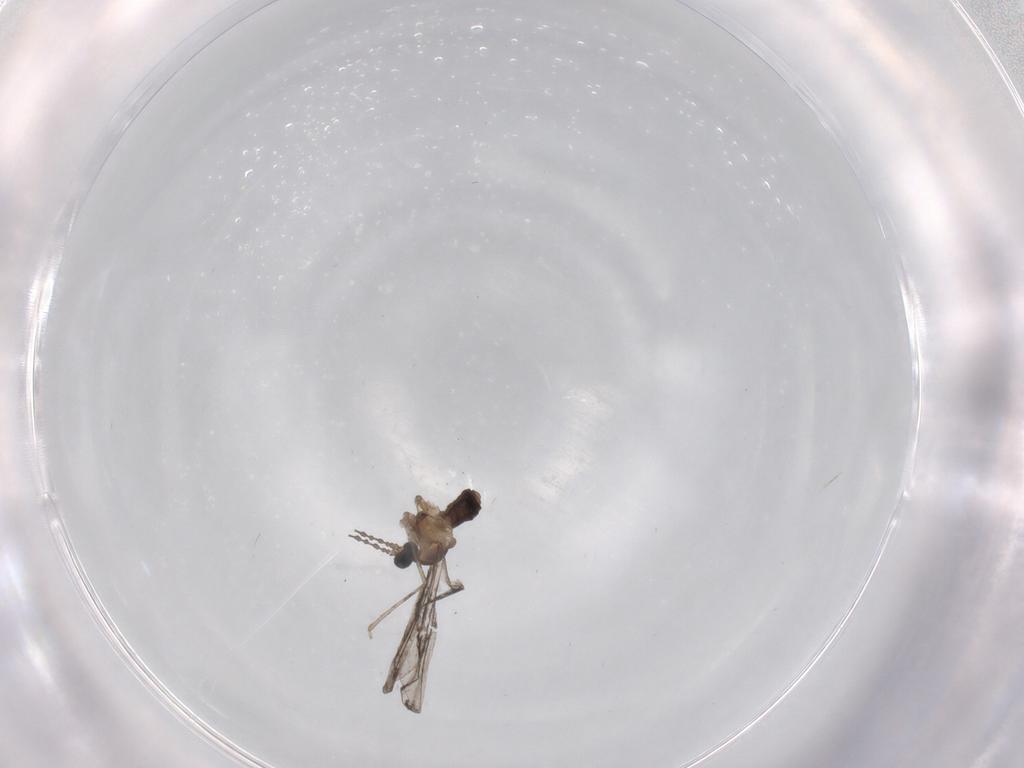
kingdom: Animalia
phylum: Arthropoda
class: Insecta
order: Diptera
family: Cecidomyiidae
